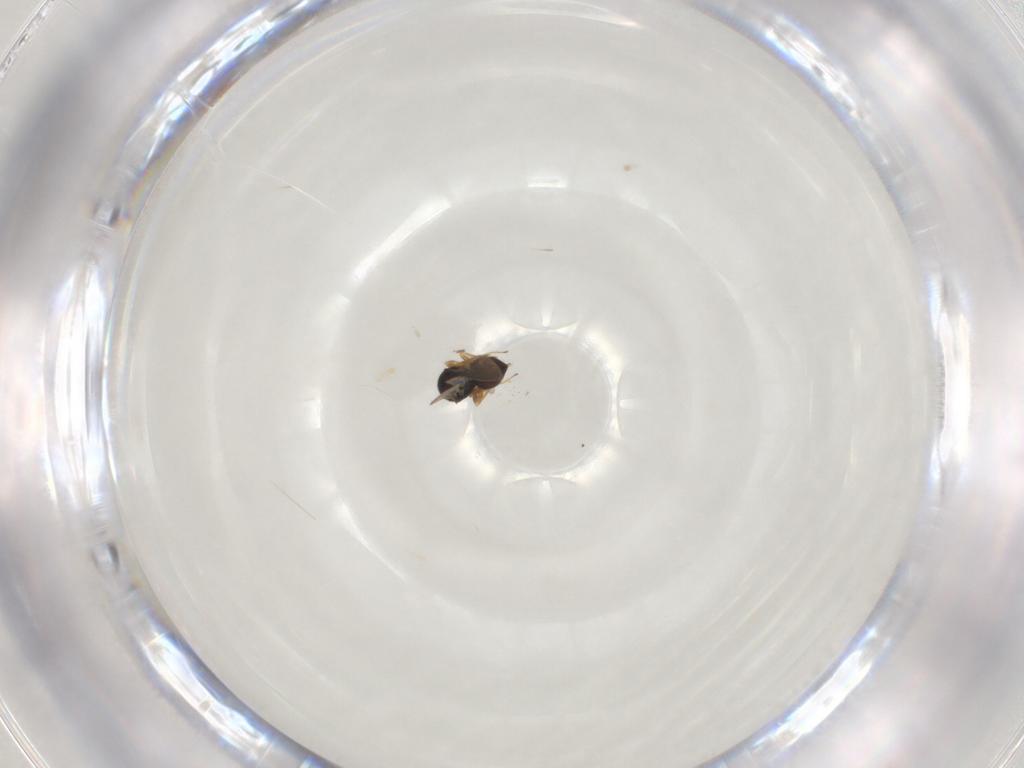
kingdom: Animalia
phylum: Arthropoda
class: Insecta
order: Hymenoptera
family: Scelionidae
